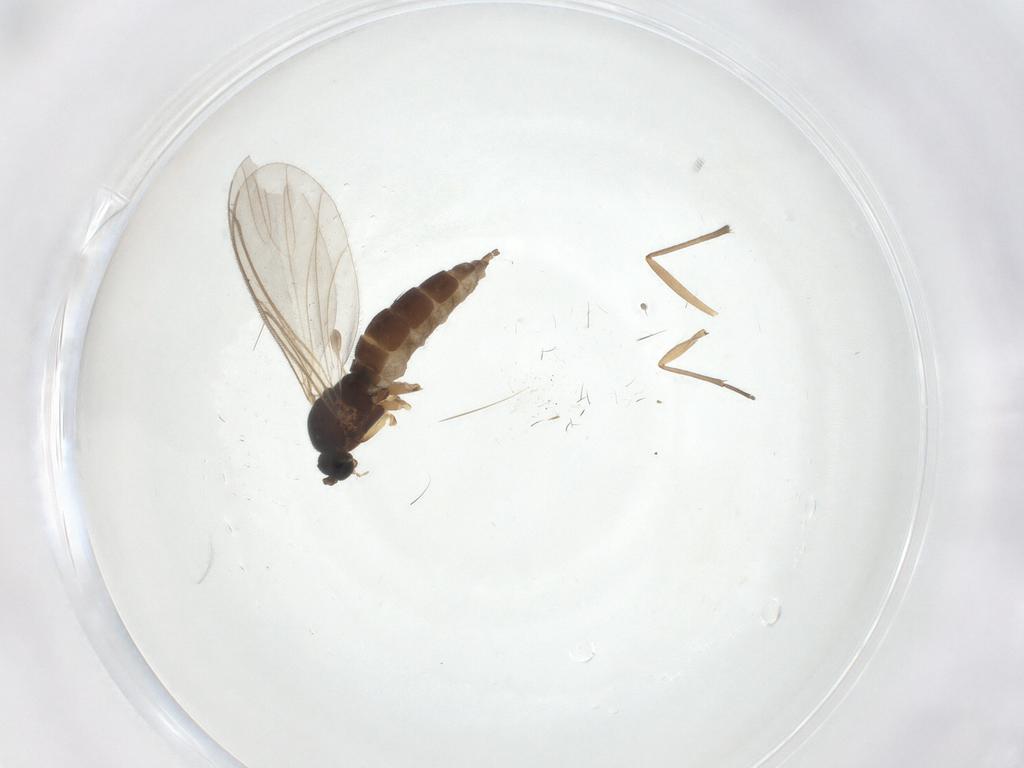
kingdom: Animalia
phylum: Arthropoda
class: Insecta
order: Diptera
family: Sciaridae
